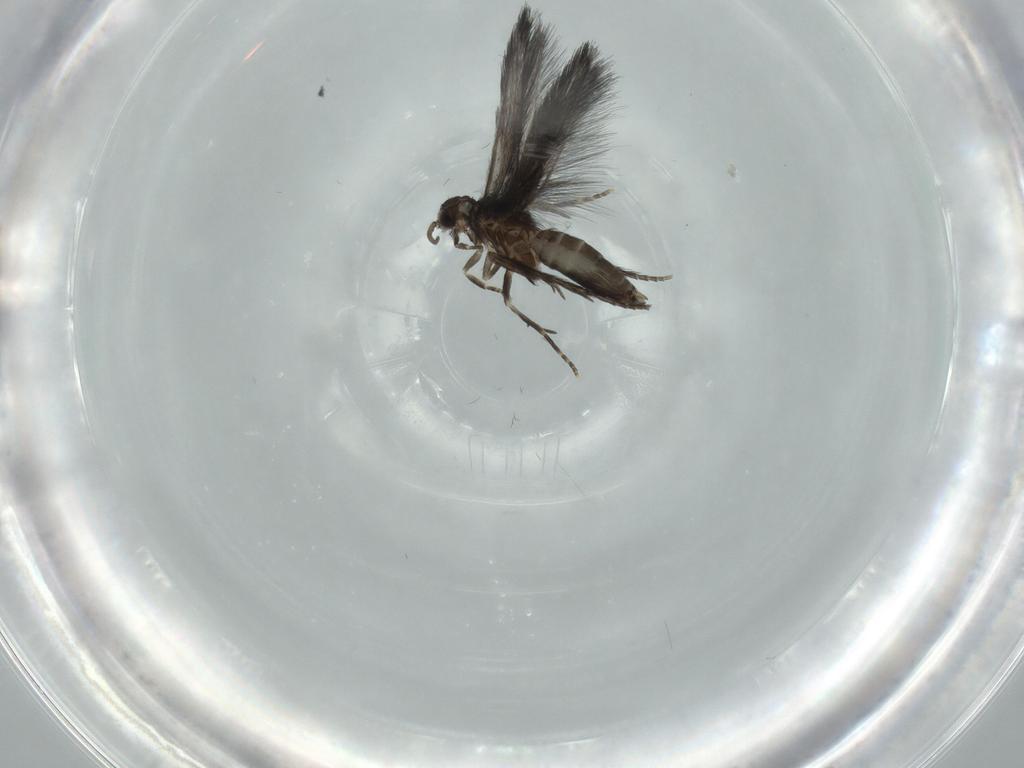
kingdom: Animalia
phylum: Arthropoda
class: Insecta
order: Trichoptera
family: Hydroptilidae
